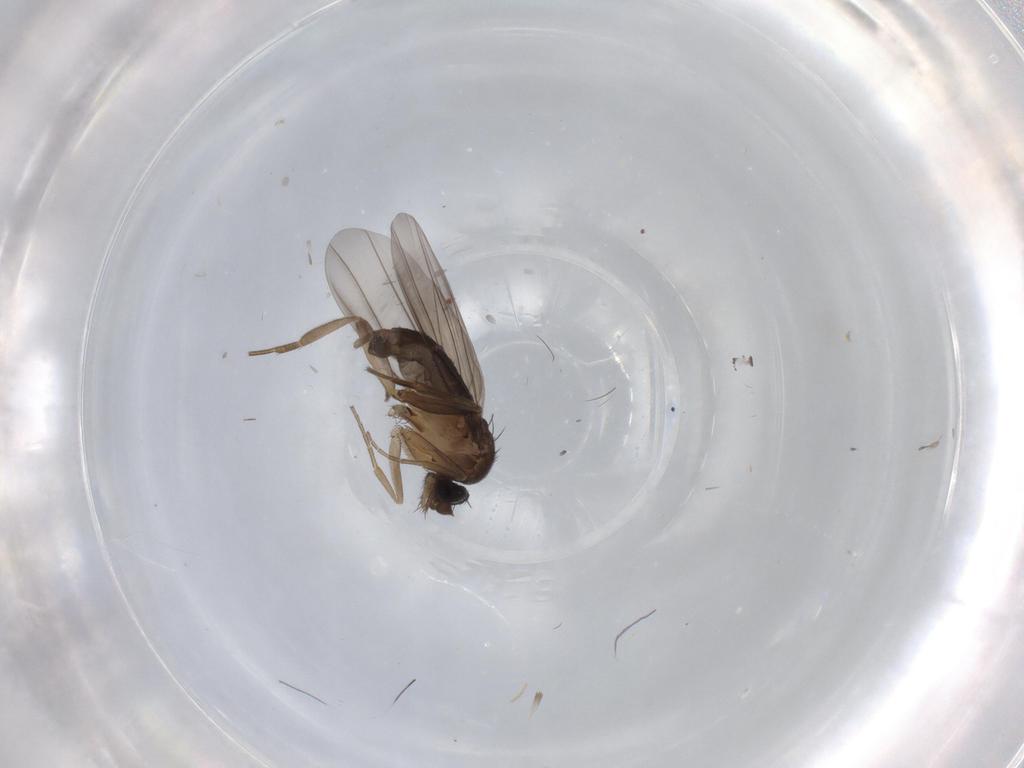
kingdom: Animalia
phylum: Arthropoda
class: Insecta
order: Diptera
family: Phoridae
